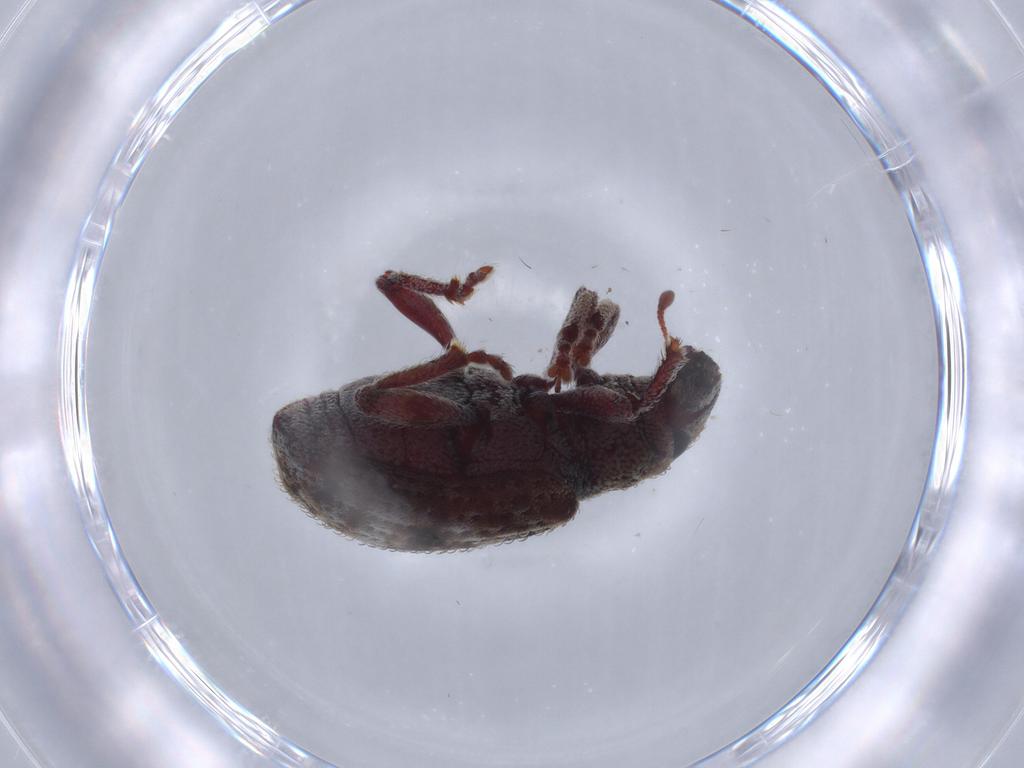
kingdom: Animalia
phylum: Arthropoda
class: Insecta
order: Coleoptera
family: Curculionidae
